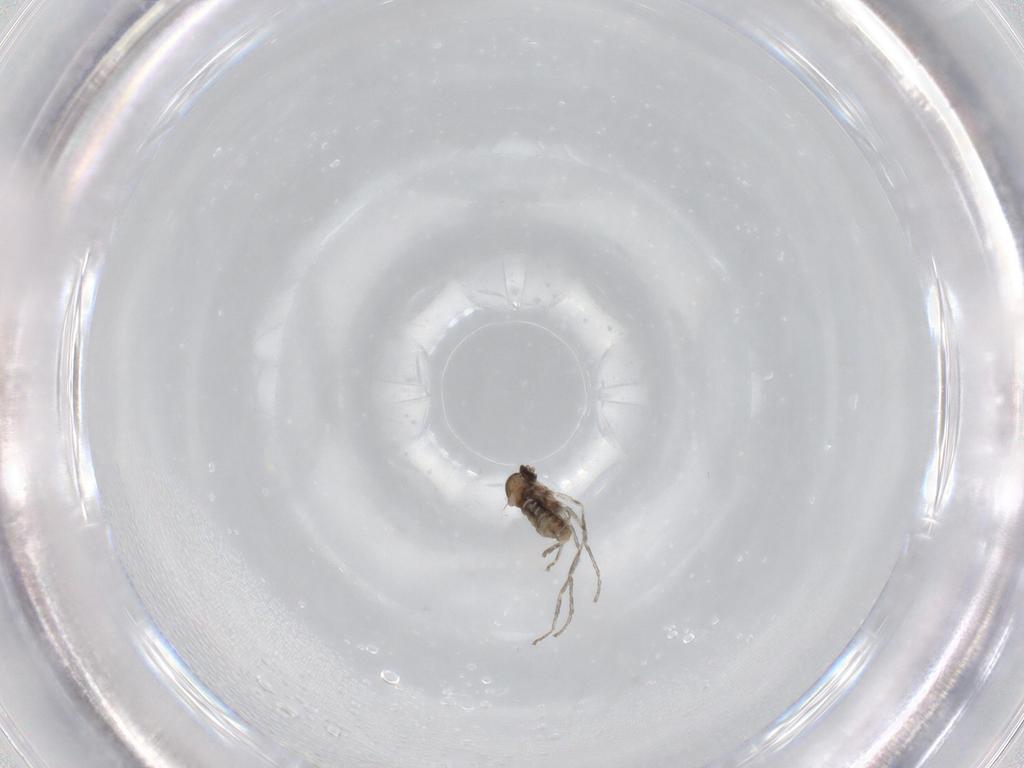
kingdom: Animalia
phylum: Arthropoda
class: Insecta
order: Diptera
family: Cecidomyiidae
